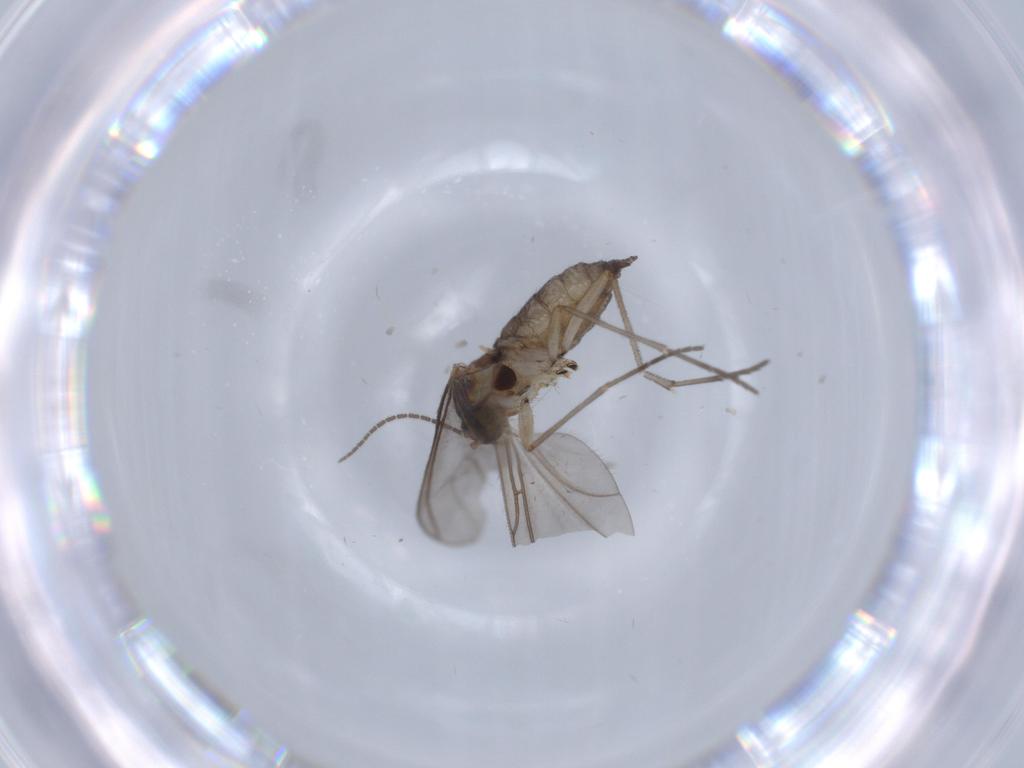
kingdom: Animalia
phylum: Arthropoda
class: Insecta
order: Diptera
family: Sciaridae
